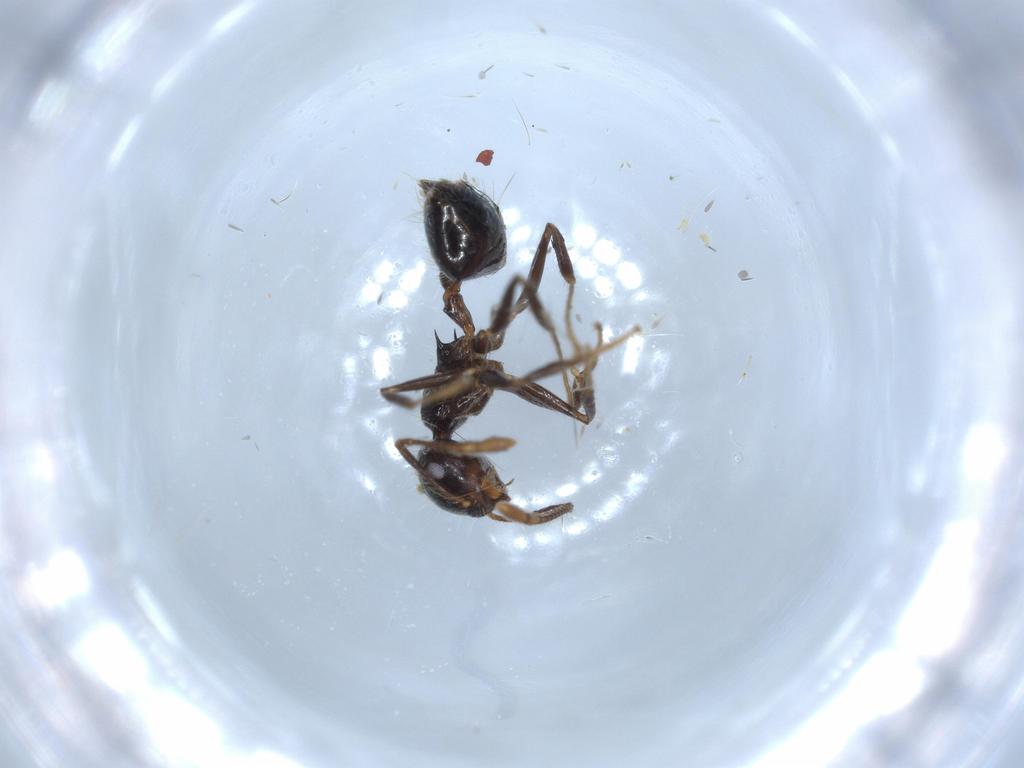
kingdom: Animalia
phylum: Arthropoda
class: Insecta
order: Hymenoptera
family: Formicidae
